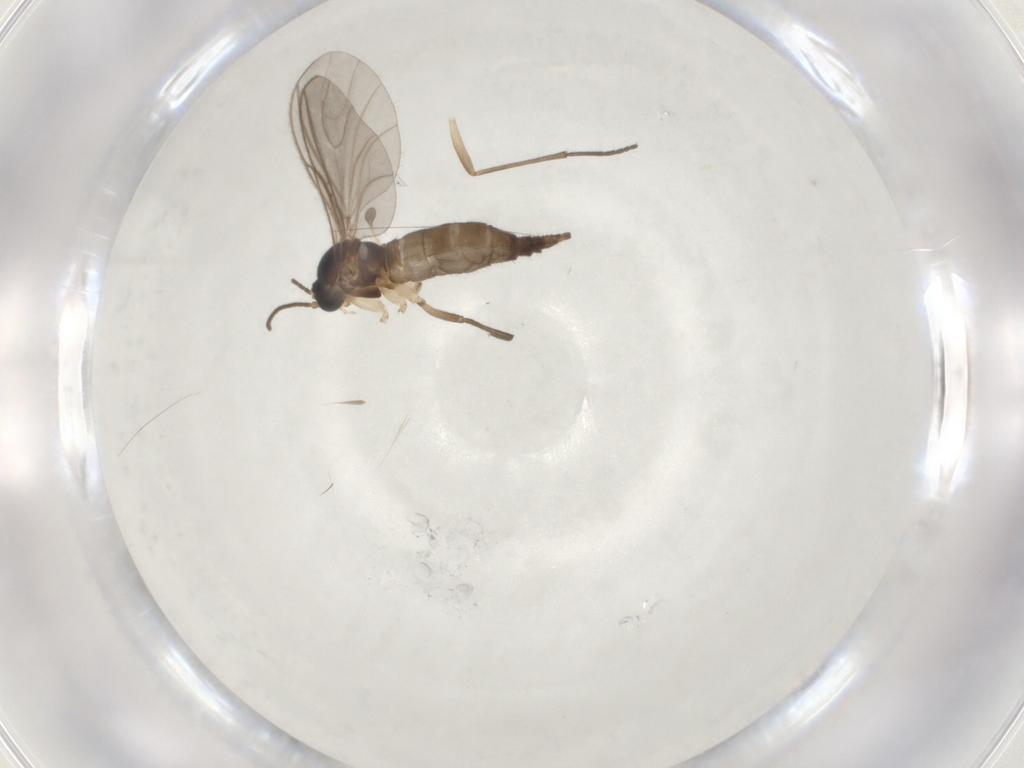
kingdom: Animalia
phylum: Arthropoda
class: Insecta
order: Diptera
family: Sciaridae
